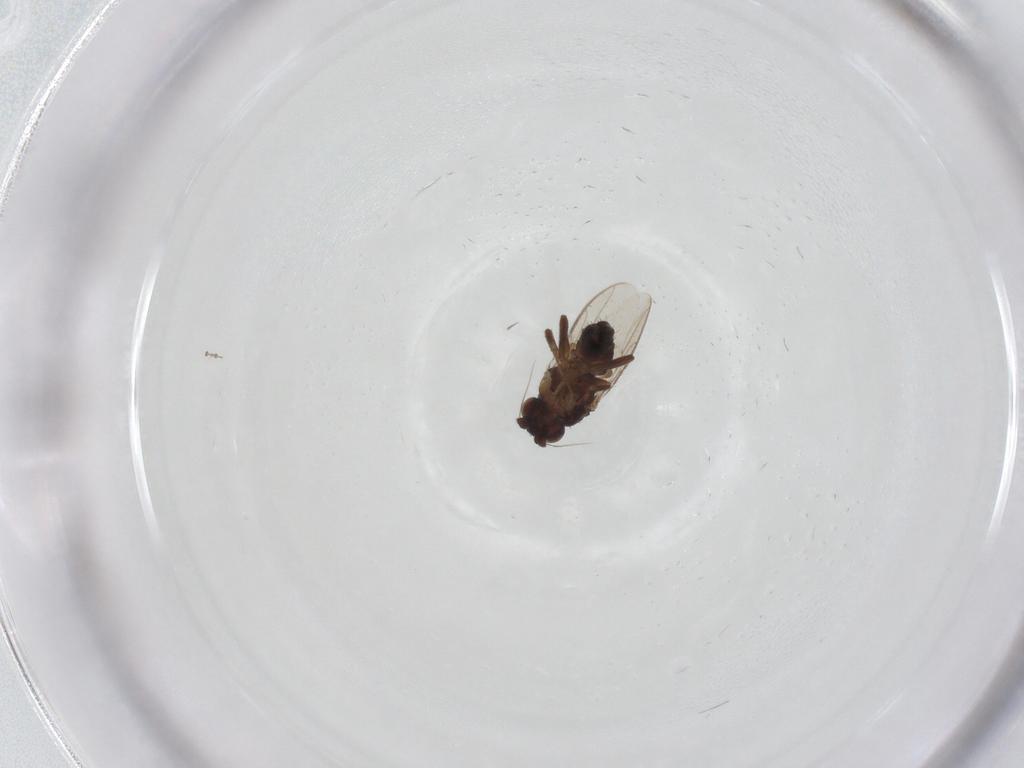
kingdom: Animalia
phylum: Arthropoda
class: Insecta
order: Diptera
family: Sphaeroceridae
